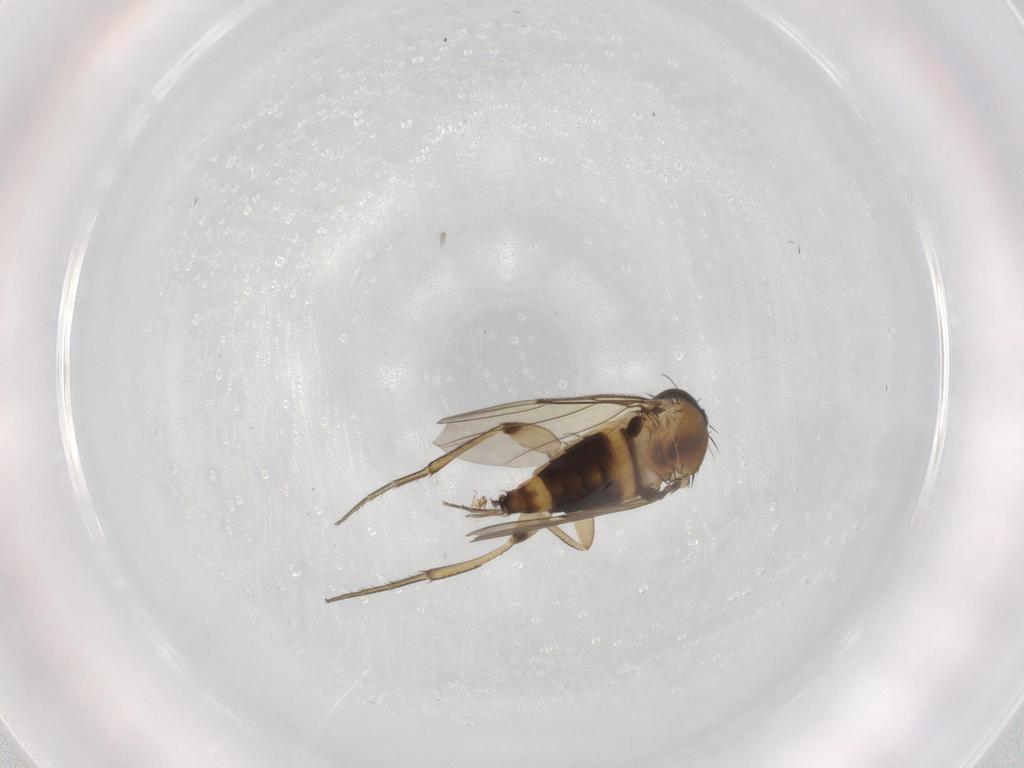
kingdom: Animalia
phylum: Arthropoda
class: Insecta
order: Diptera
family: Phoridae
